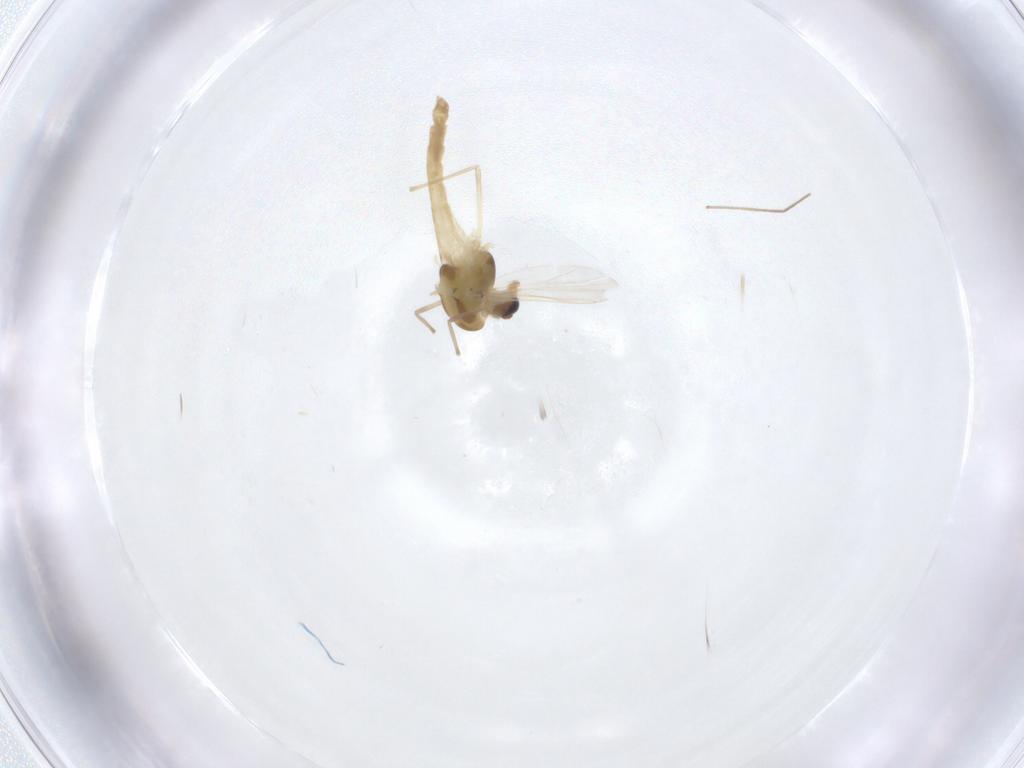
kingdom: Animalia
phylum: Arthropoda
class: Insecta
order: Diptera
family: Chironomidae
